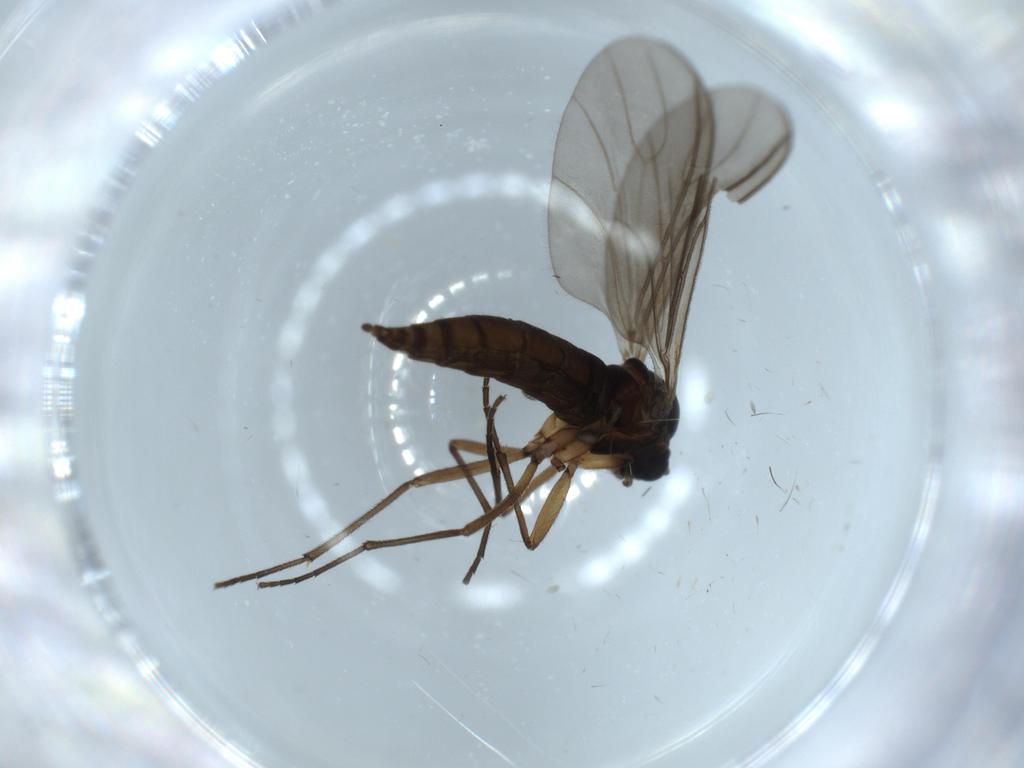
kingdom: Animalia
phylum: Arthropoda
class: Insecta
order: Diptera
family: Sciaridae
